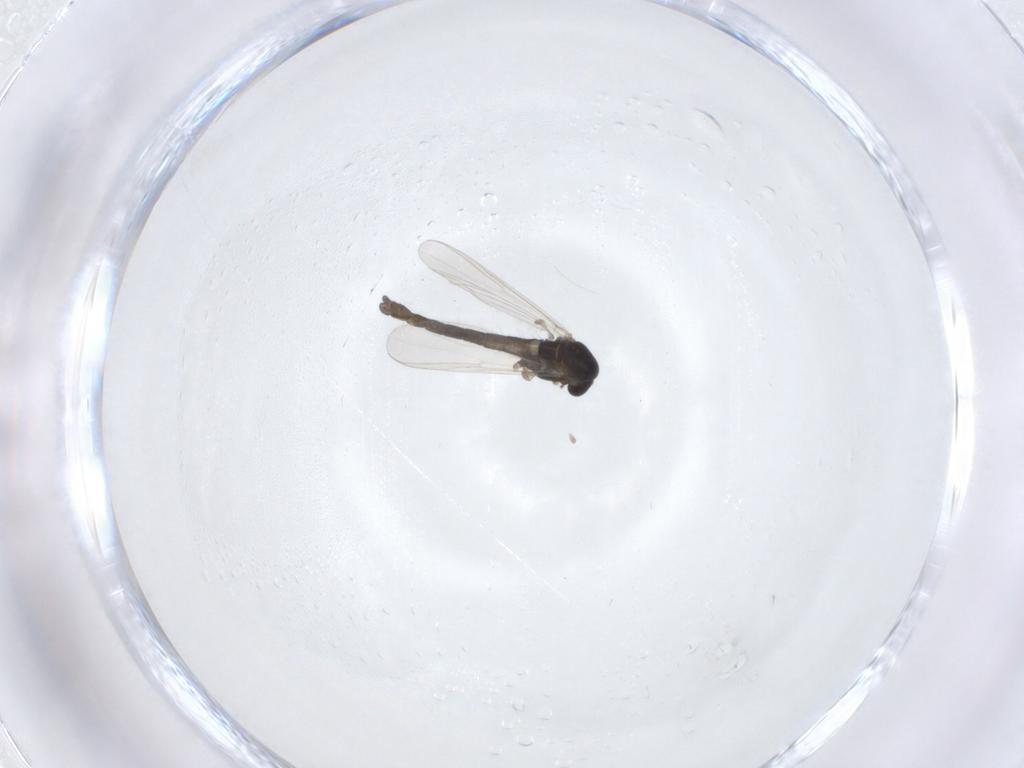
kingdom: Animalia
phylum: Arthropoda
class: Insecta
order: Diptera
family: Chironomidae
